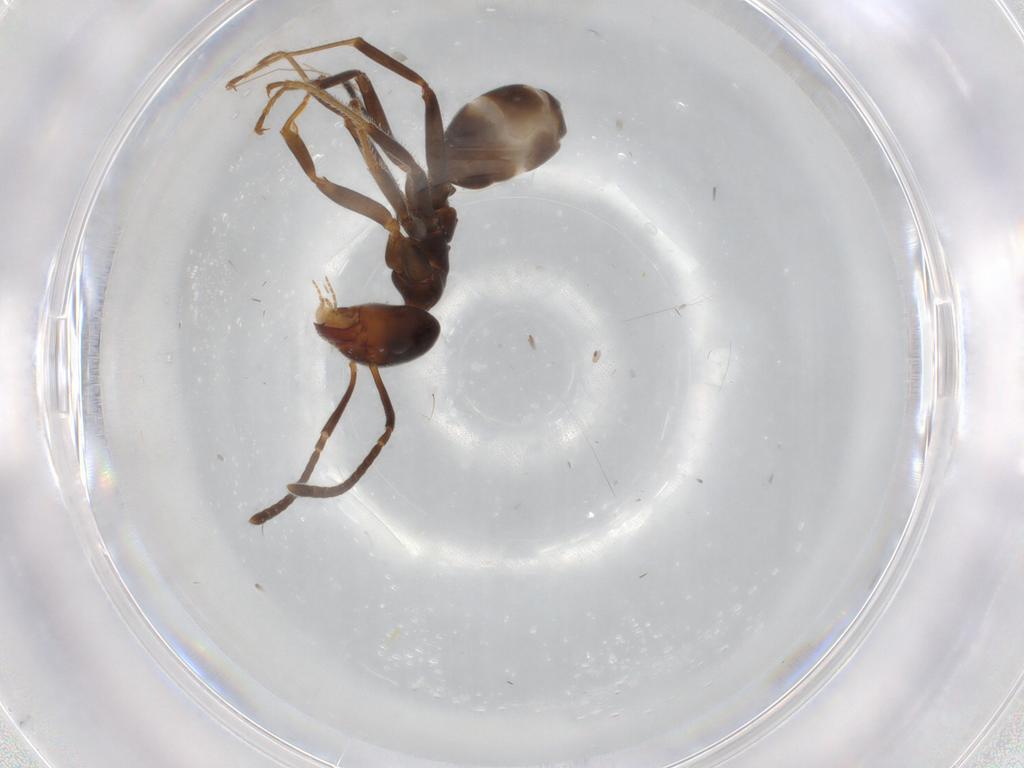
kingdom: Animalia
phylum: Arthropoda
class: Insecta
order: Hymenoptera
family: Formicidae
